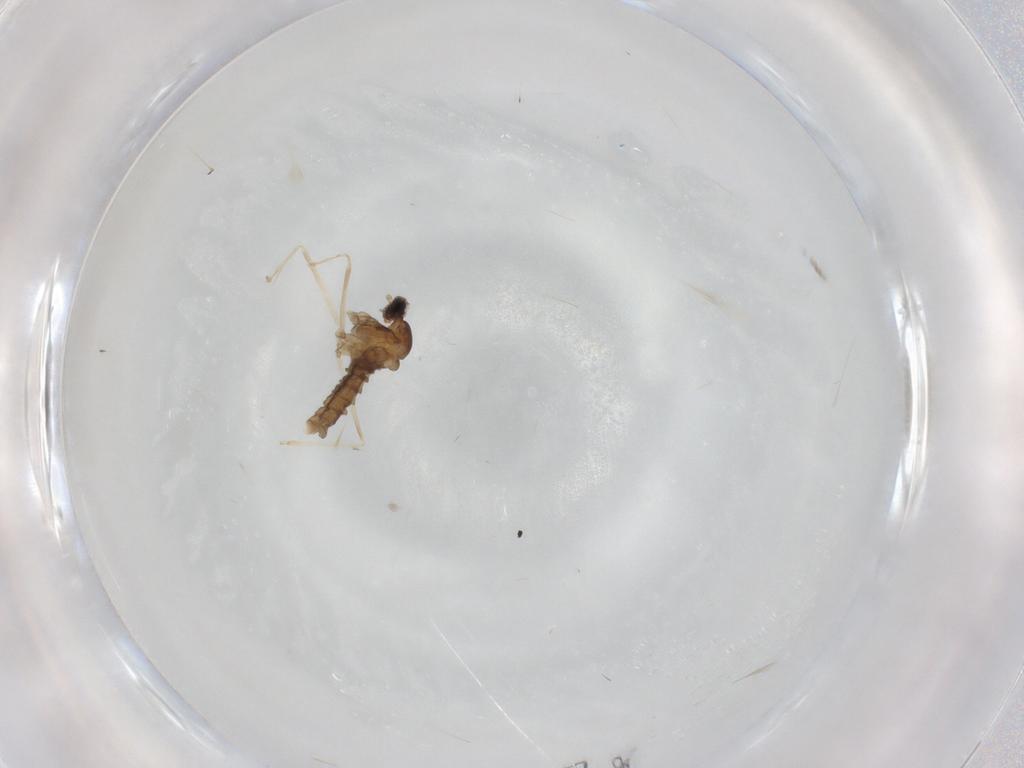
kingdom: Animalia
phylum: Arthropoda
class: Insecta
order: Diptera
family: Cecidomyiidae
